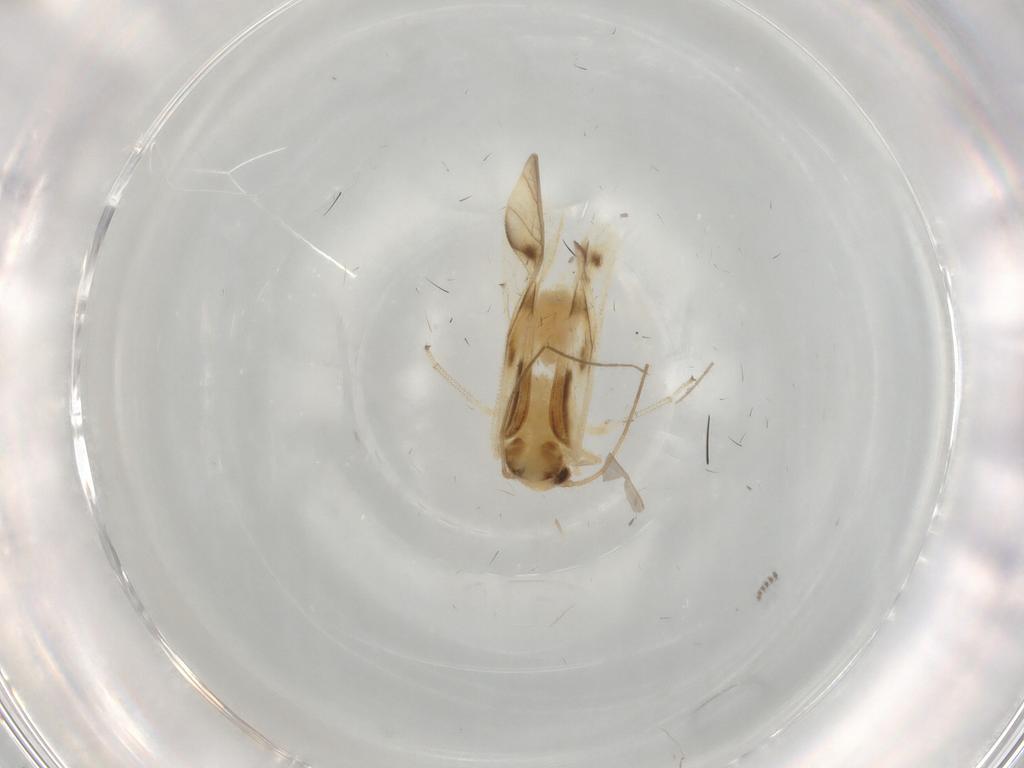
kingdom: Animalia
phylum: Arthropoda
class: Insecta
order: Psocodea
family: Caeciliusidae
